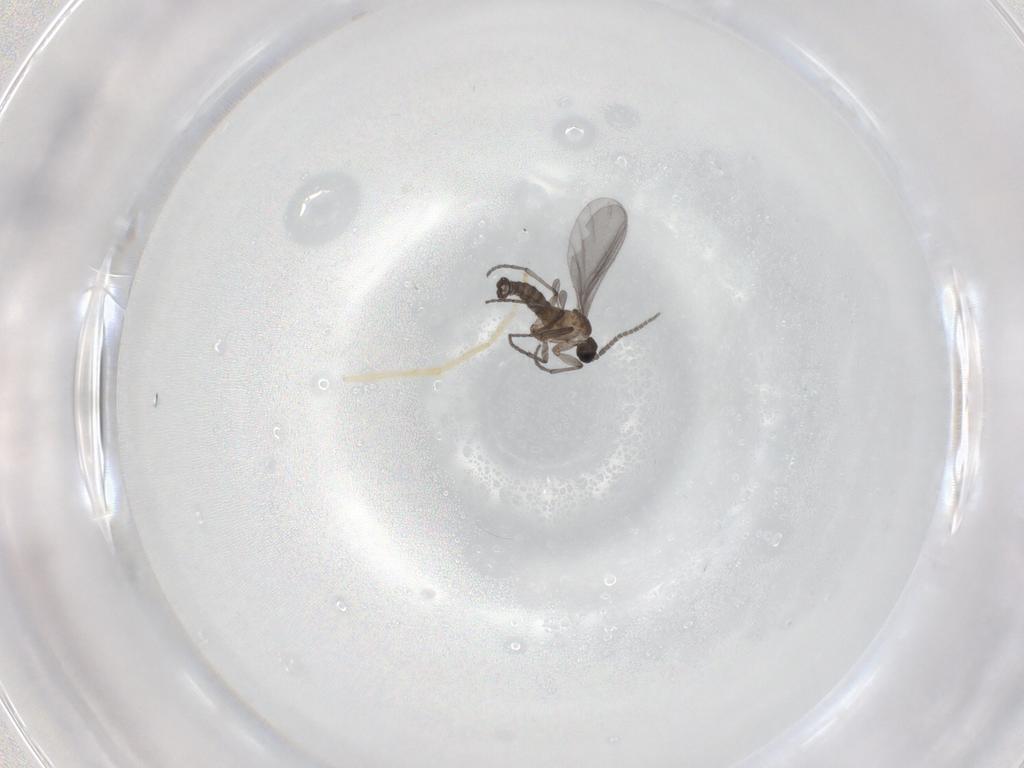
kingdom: Animalia
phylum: Arthropoda
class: Insecta
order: Diptera
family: Sciaridae
